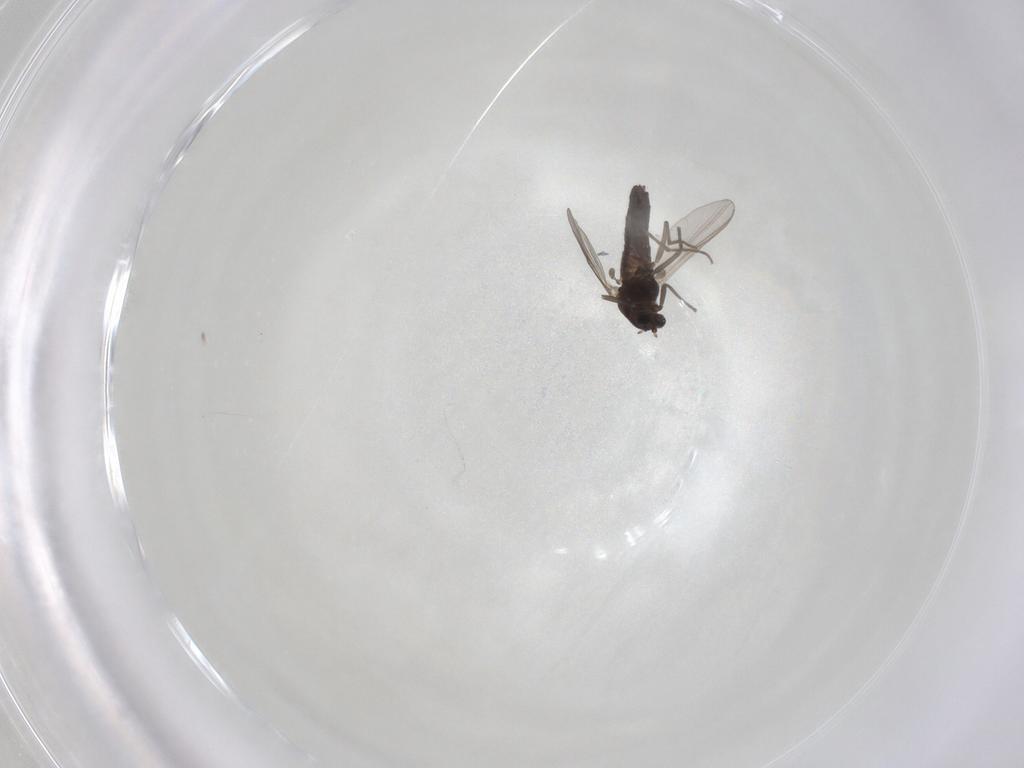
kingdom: Animalia
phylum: Arthropoda
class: Insecta
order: Diptera
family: Chironomidae
